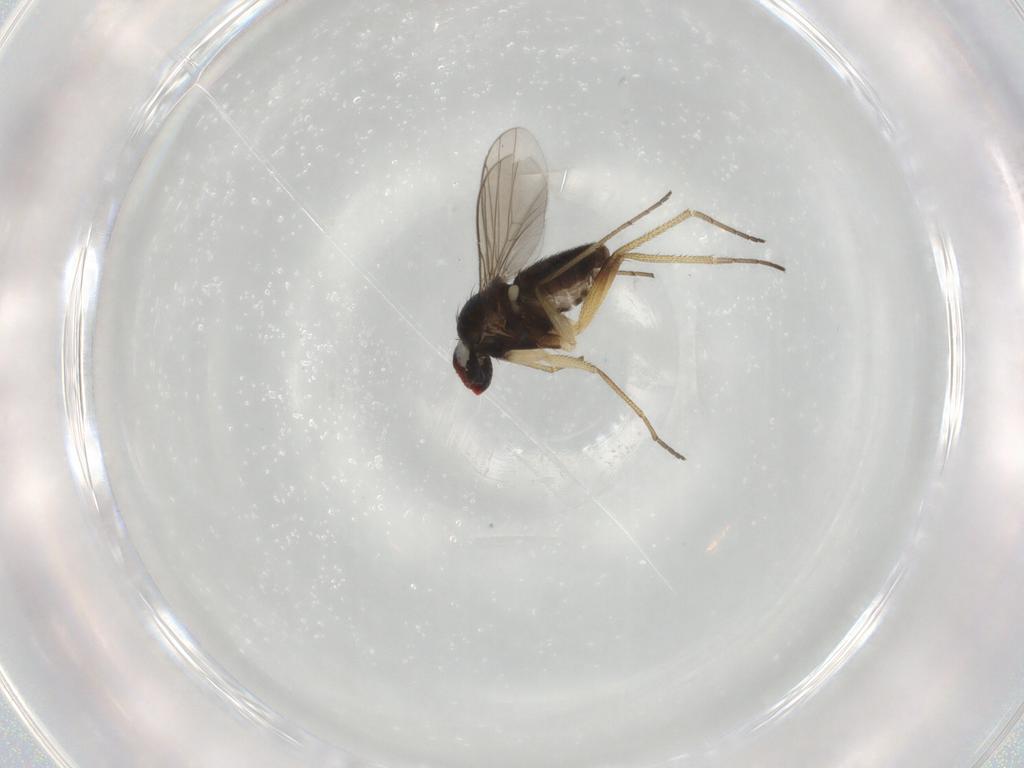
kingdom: Animalia
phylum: Arthropoda
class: Insecta
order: Diptera
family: Dolichopodidae
